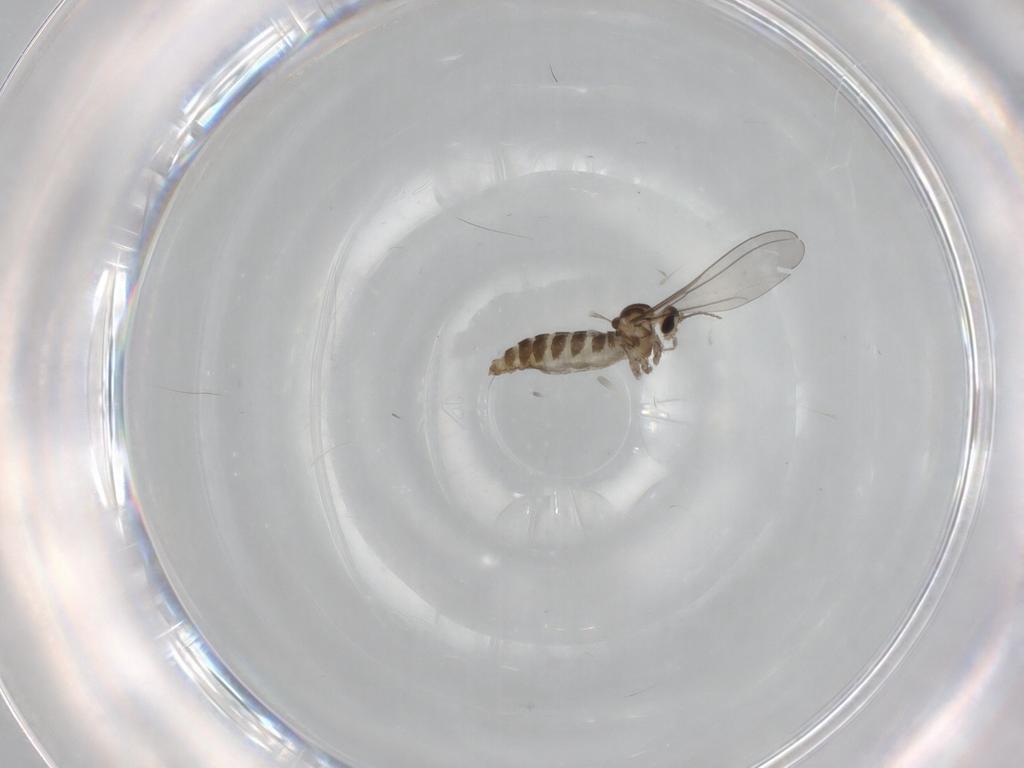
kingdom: Animalia
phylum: Arthropoda
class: Insecta
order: Diptera
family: Cecidomyiidae
